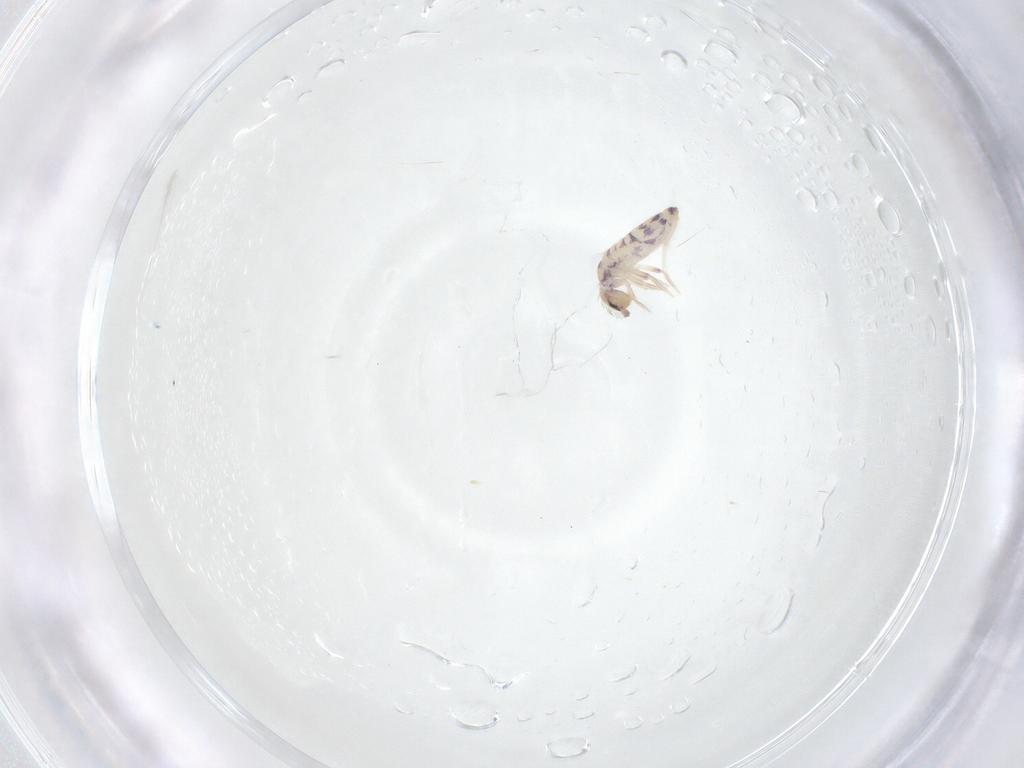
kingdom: Animalia
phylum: Arthropoda
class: Collembola
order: Entomobryomorpha
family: Entomobryidae
